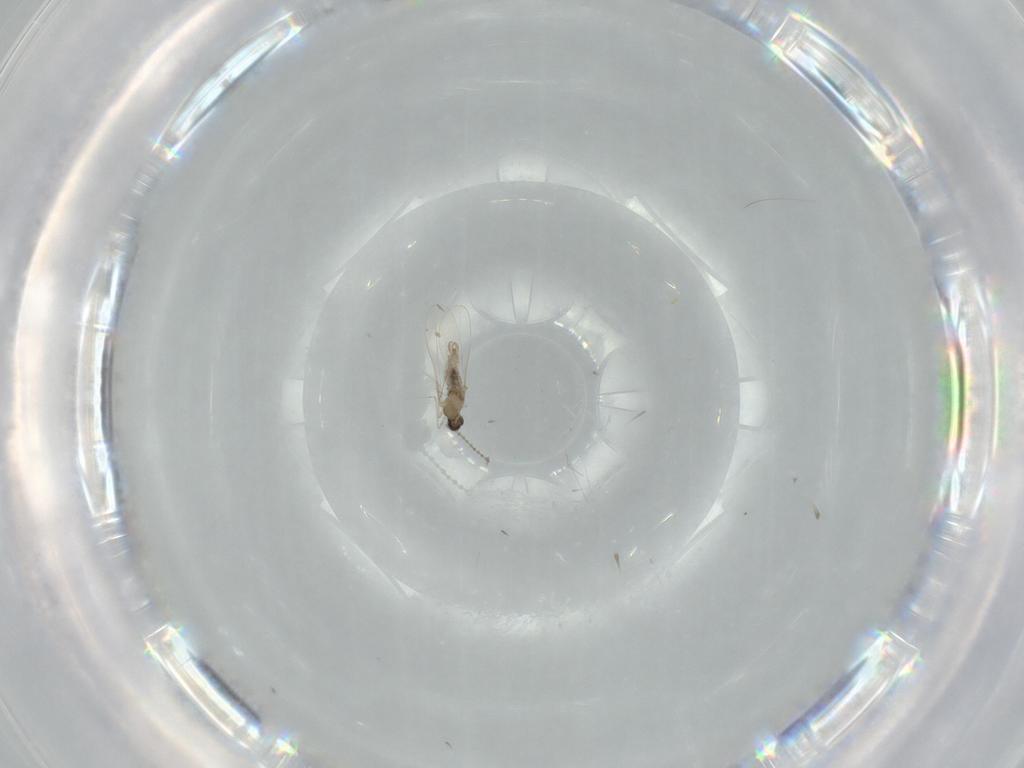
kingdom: Animalia
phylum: Arthropoda
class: Insecta
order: Diptera
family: Cecidomyiidae
